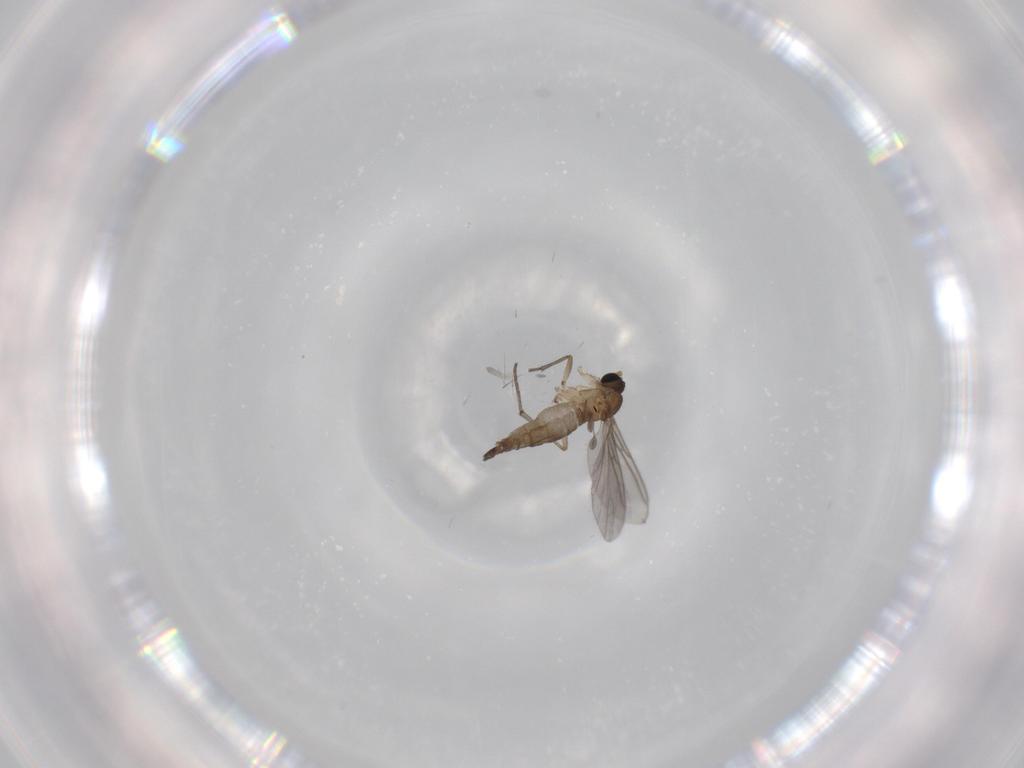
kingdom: Animalia
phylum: Arthropoda
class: Insecta
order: Diptera
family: Sciaridae
